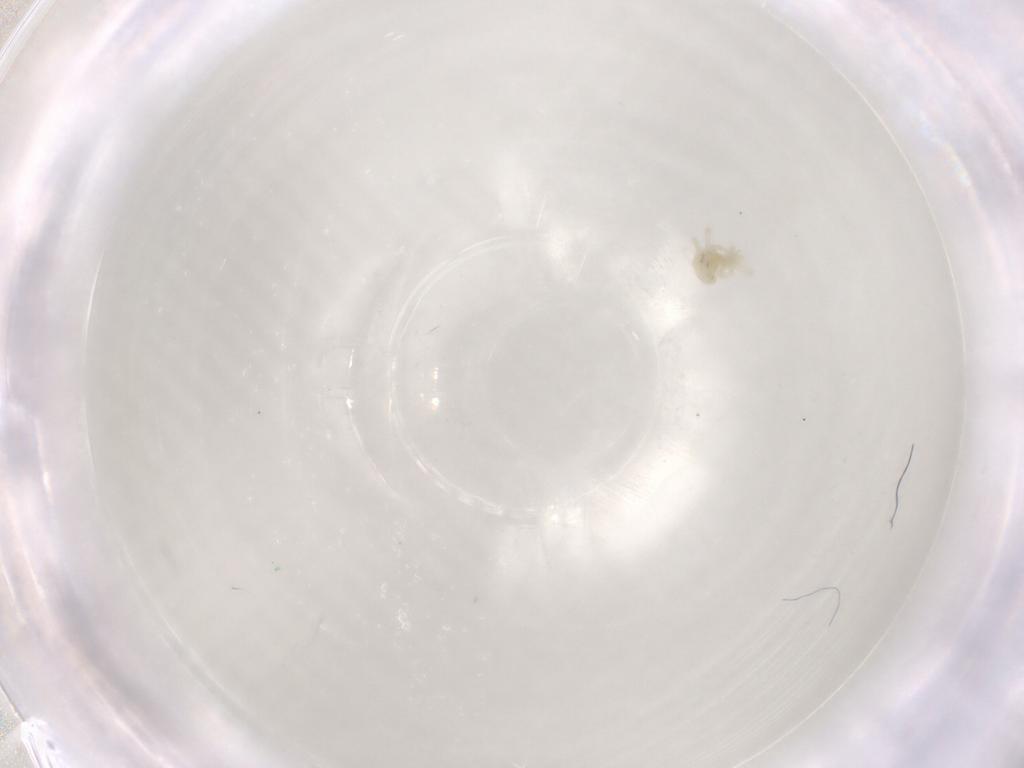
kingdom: Animalia
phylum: Arthropoda
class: Arachnida
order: Trombidiformes
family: Anystidae
